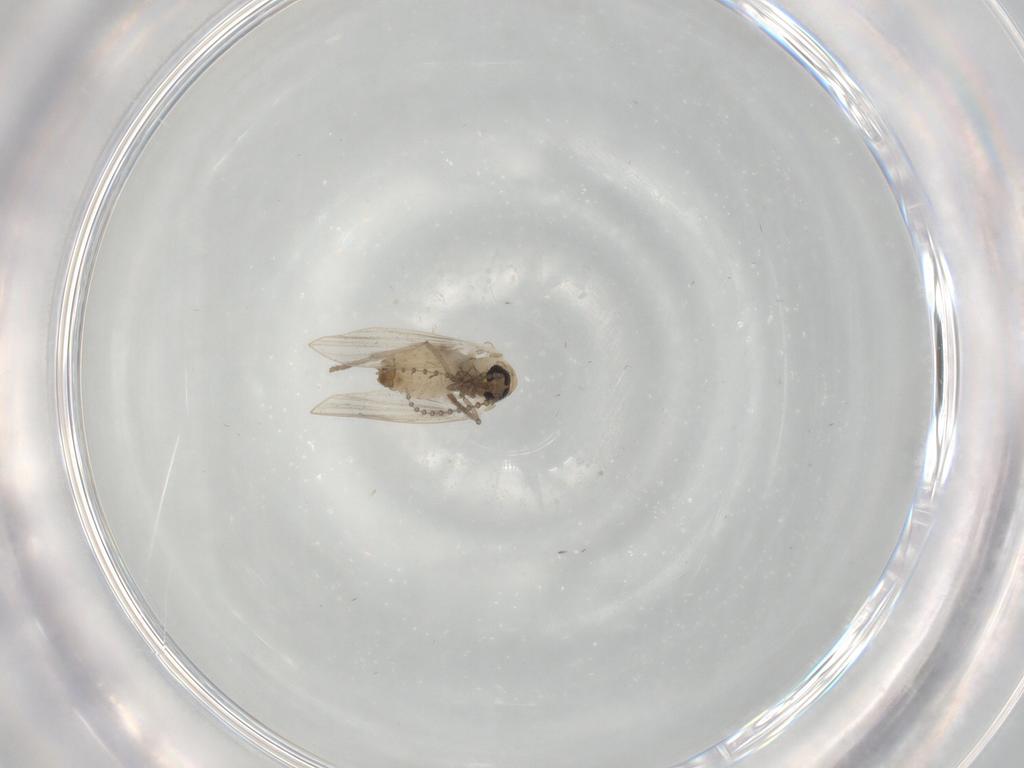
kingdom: Animalia
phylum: Arthropoda
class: Insecta
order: Diptera
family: Psychodidae
